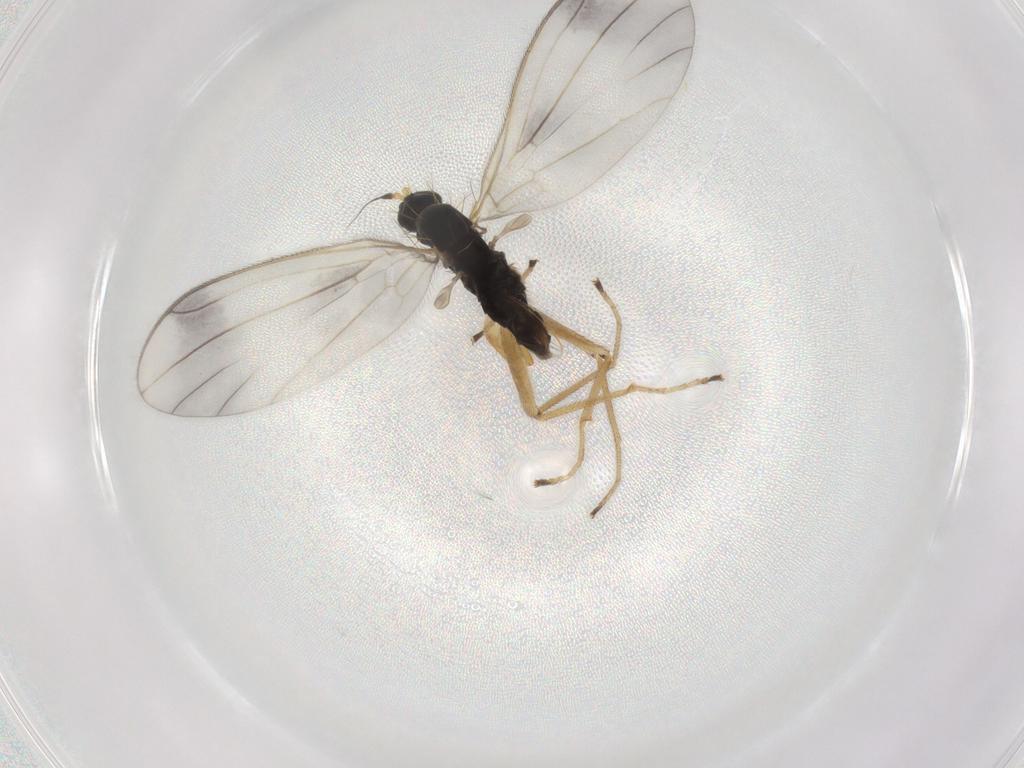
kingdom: Animalia
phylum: Arthropoda
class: Insecta
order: Diptera
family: Empididae
